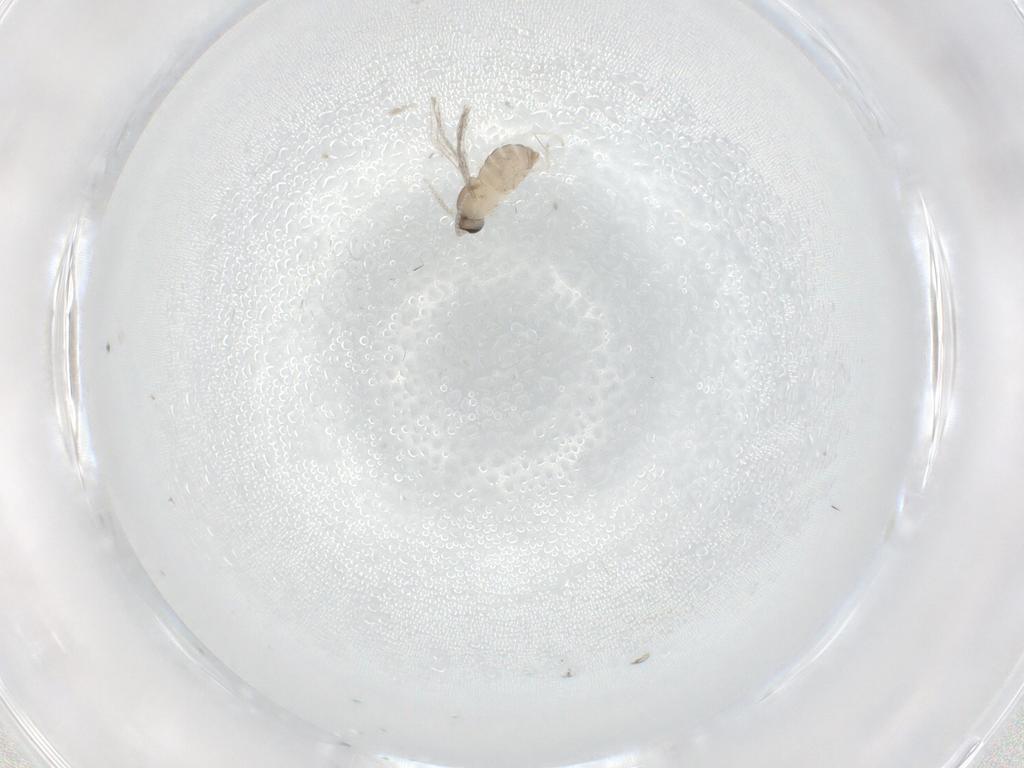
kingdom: Animalia
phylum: Arthropoda
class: Insecta
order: Diptera
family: Cecidomyiidae
